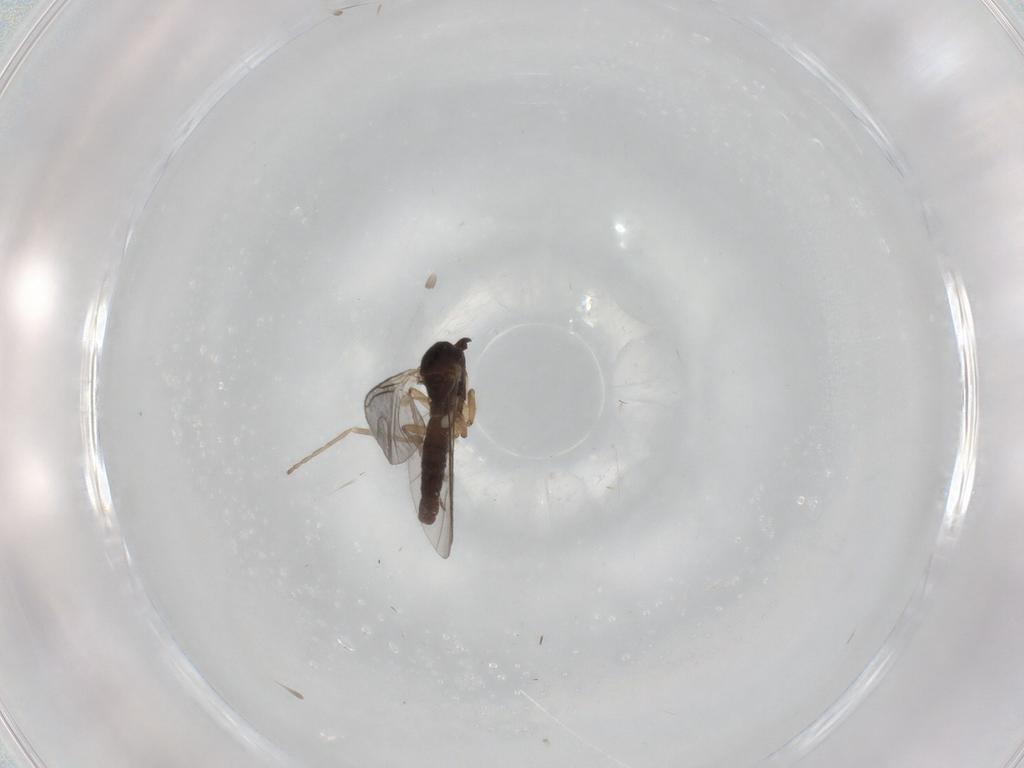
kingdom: Animalia
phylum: Arthropoda
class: Insecta
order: Diptera
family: Sciaridae
